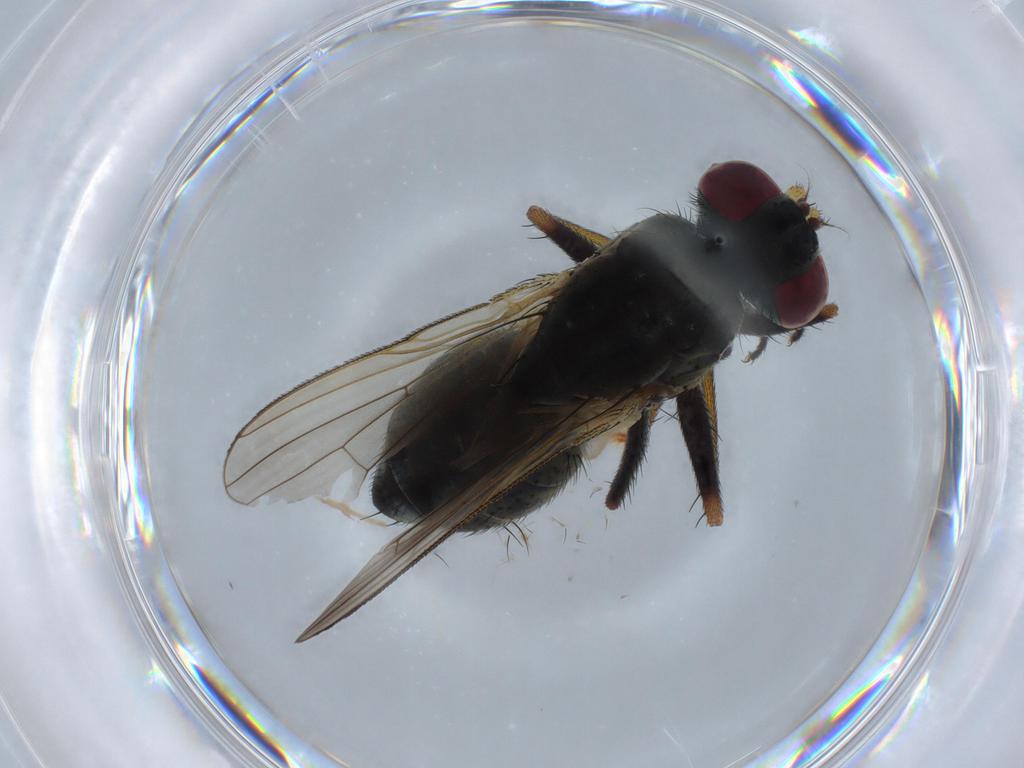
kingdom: Animalia
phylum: Arthropoda
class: Insecta
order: Diptera
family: Muscidae
